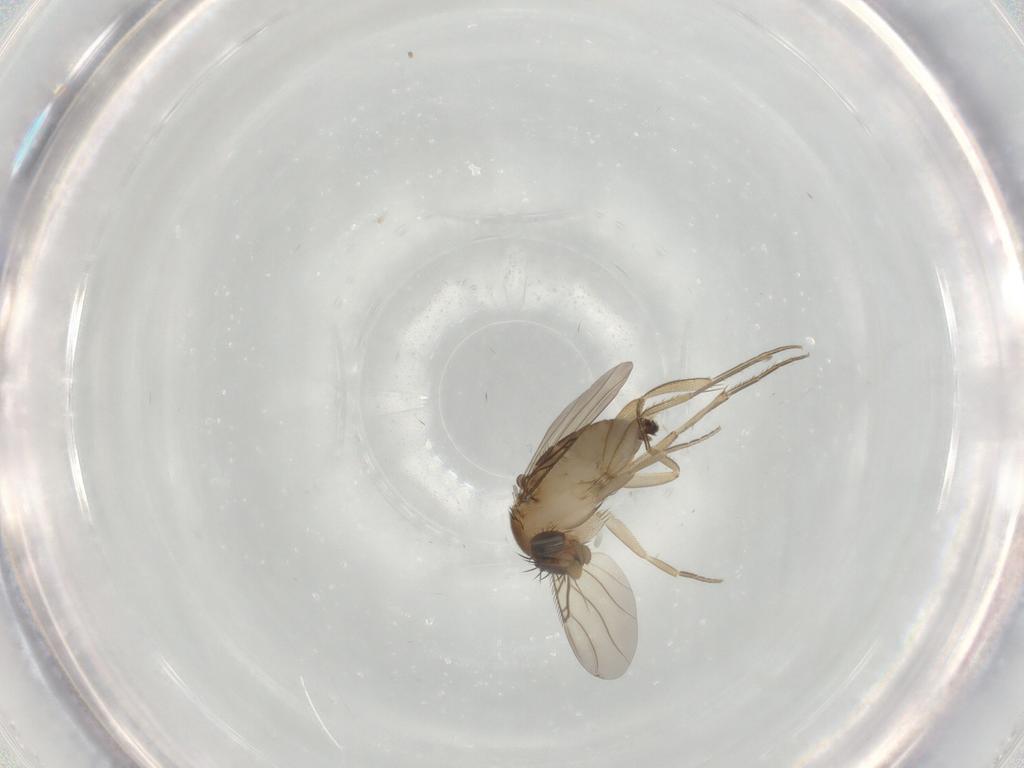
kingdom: Animalia
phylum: Arthropoda
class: Insecta
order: Diptera
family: Phoridae
